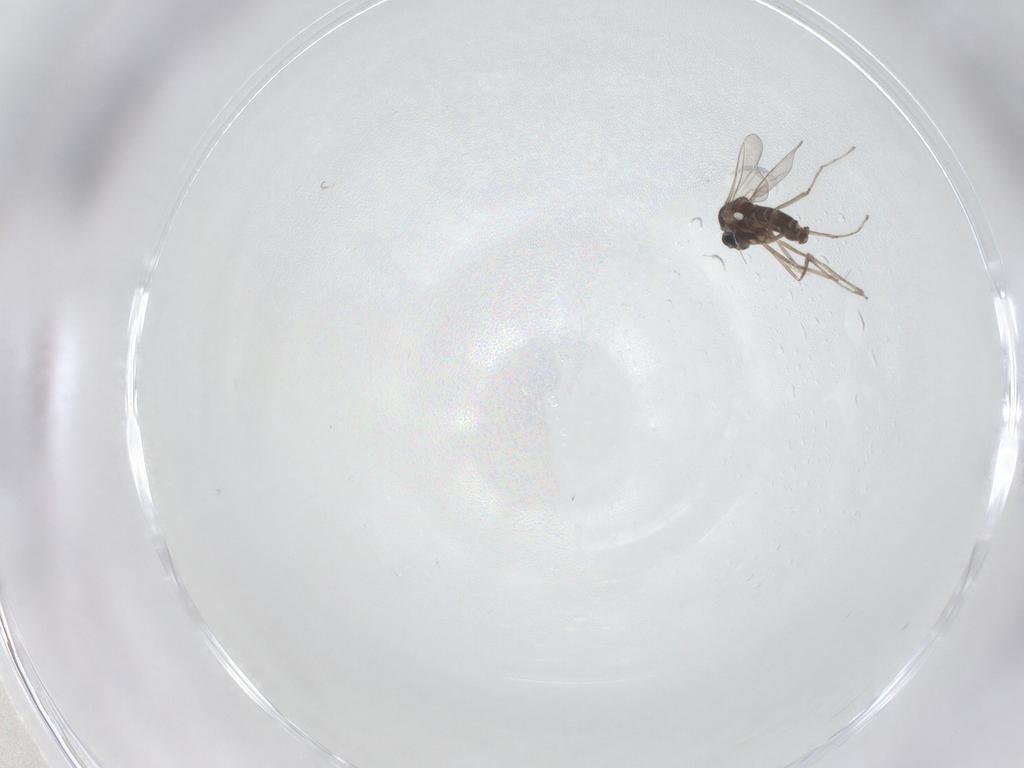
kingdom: Animalia
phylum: Arthropoda
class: Insecta
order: Diptera
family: Cecidomyiidae
